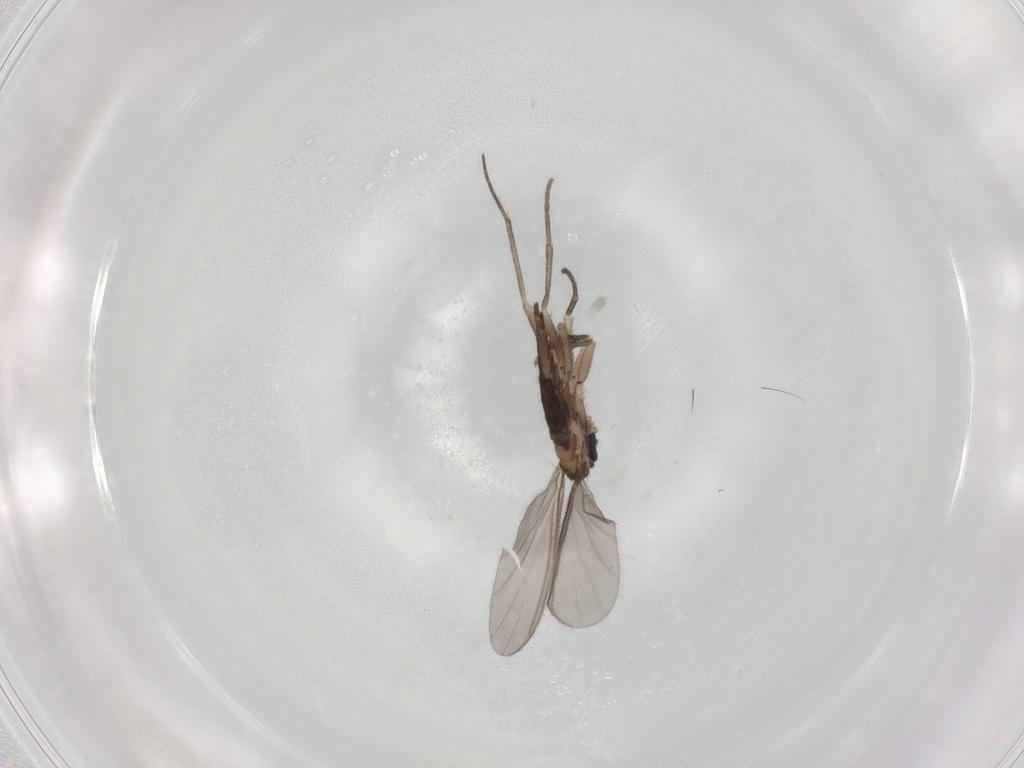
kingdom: Animalia
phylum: Arthropoda
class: Insecta
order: Diptera
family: Sciaridae
